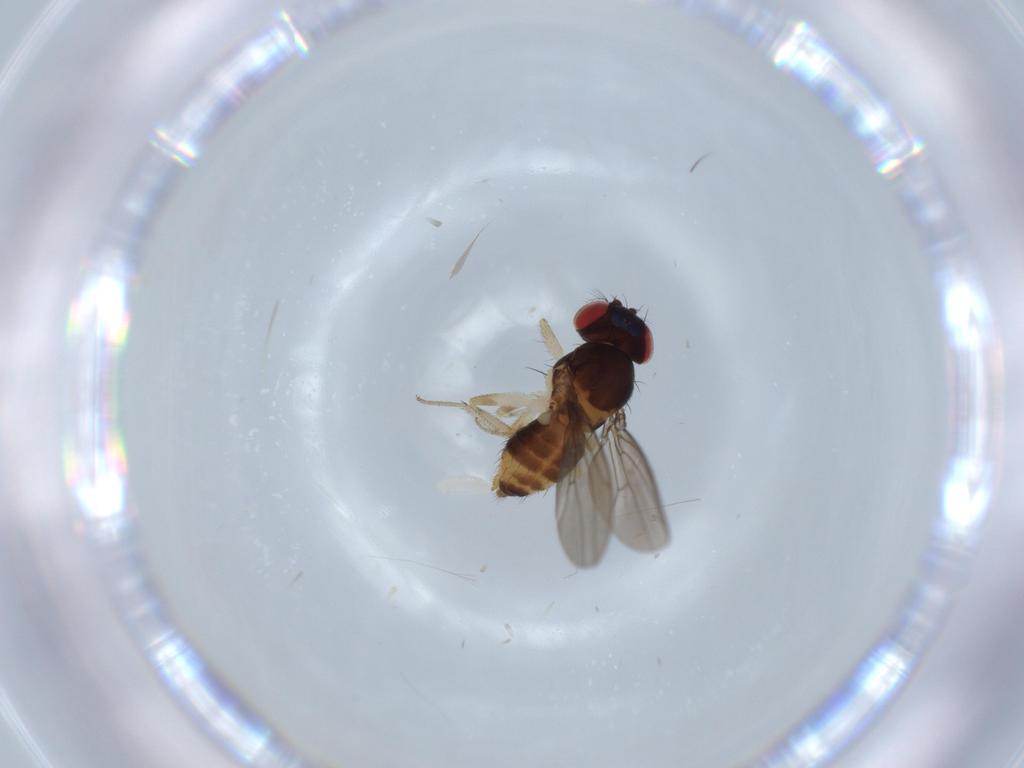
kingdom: Animalia
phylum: Arthropoda
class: Insecta
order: Diptera
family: Drosophilidae
